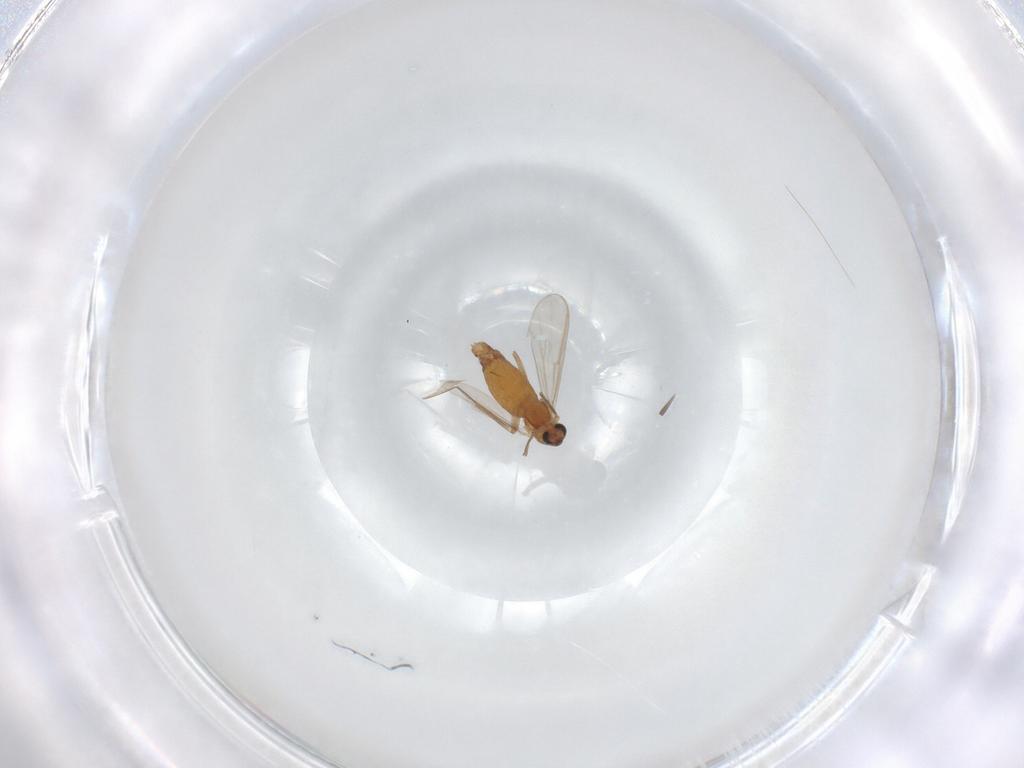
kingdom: Animalia
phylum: Arthropoda
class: Insecta
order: Diptera
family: Chironomidae
